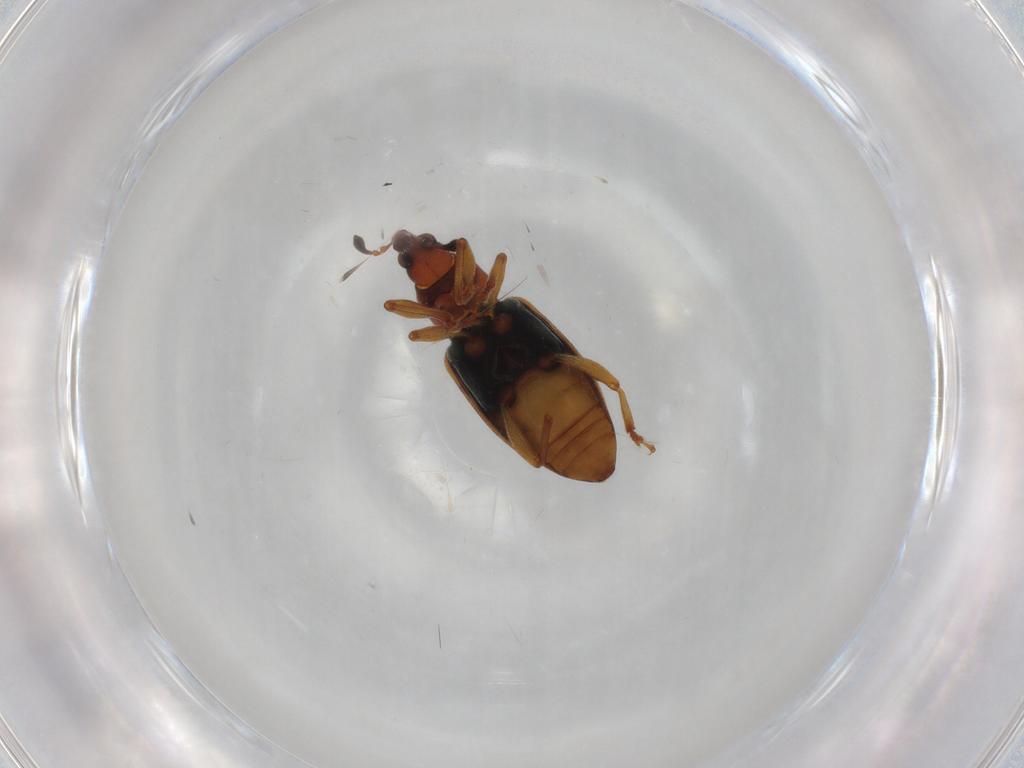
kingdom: Animalia
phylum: Arthropoda
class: Insecta
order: Coleoptera
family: Curculionidae
